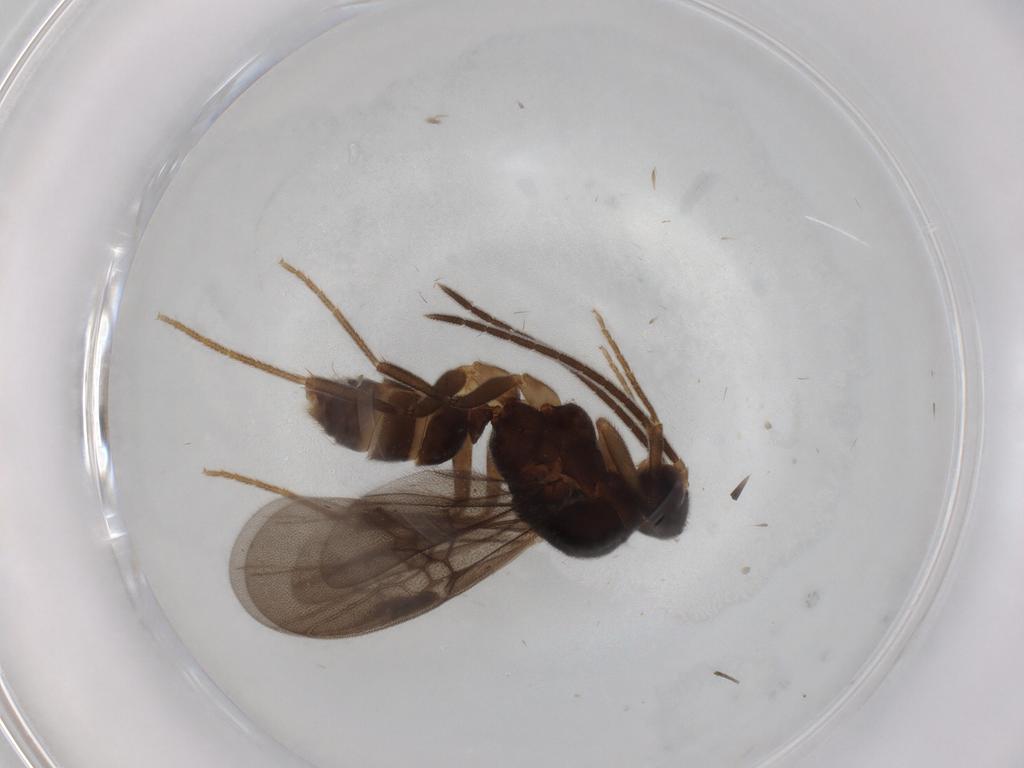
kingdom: Animalia
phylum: Arthropoda
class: Insecta
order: Hymenoptera
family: Formicidae
